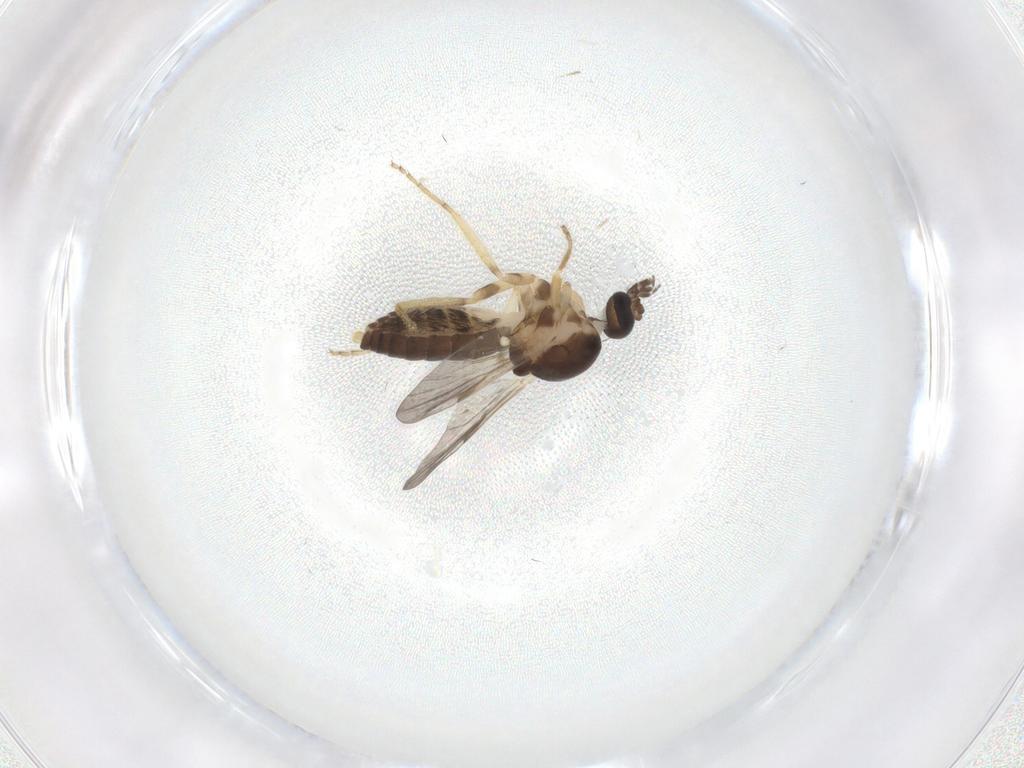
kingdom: Animalia
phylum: Arthropoda
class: Insecta
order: Diptera
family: Ceratopogonidae
